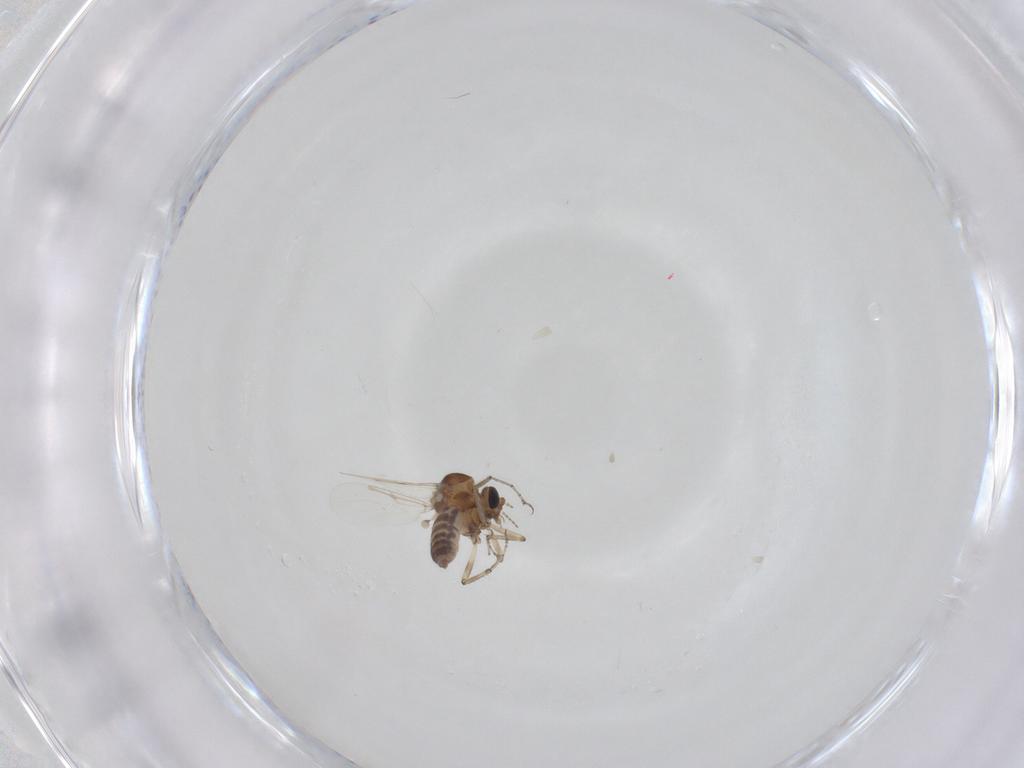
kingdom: Animalia
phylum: Arthropoda
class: Insecta
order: Diptera
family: Ceratopogonidae
